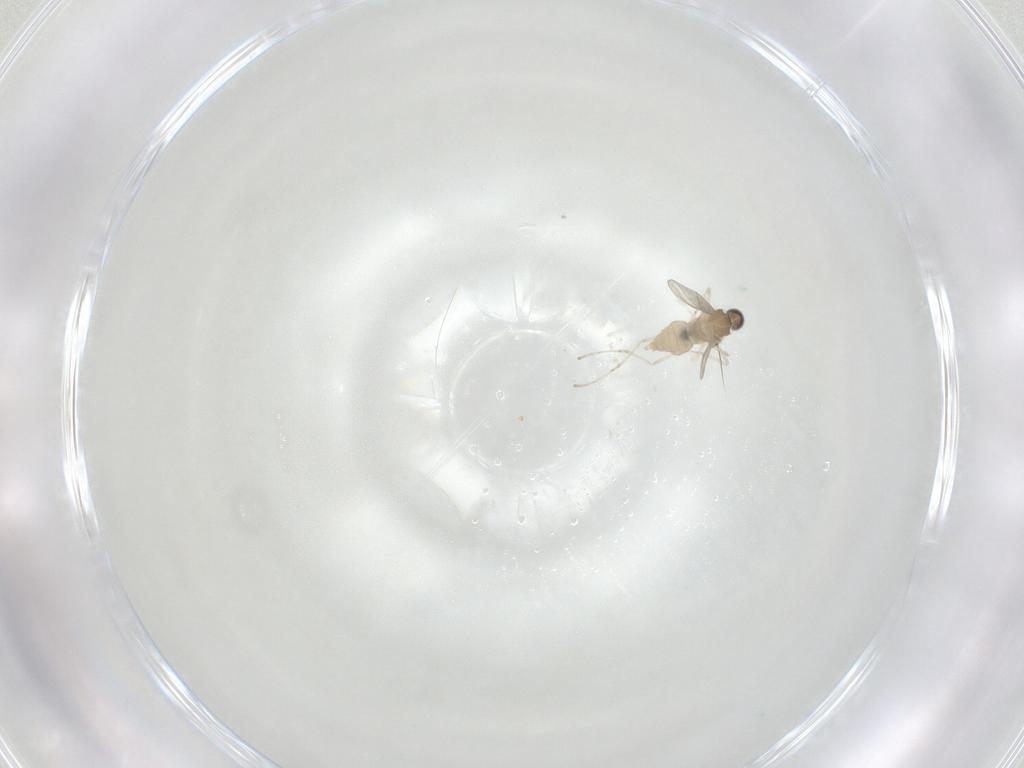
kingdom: Animalia
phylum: Arthropoda
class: Insecta
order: Diptera
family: Cecidomyiidae
